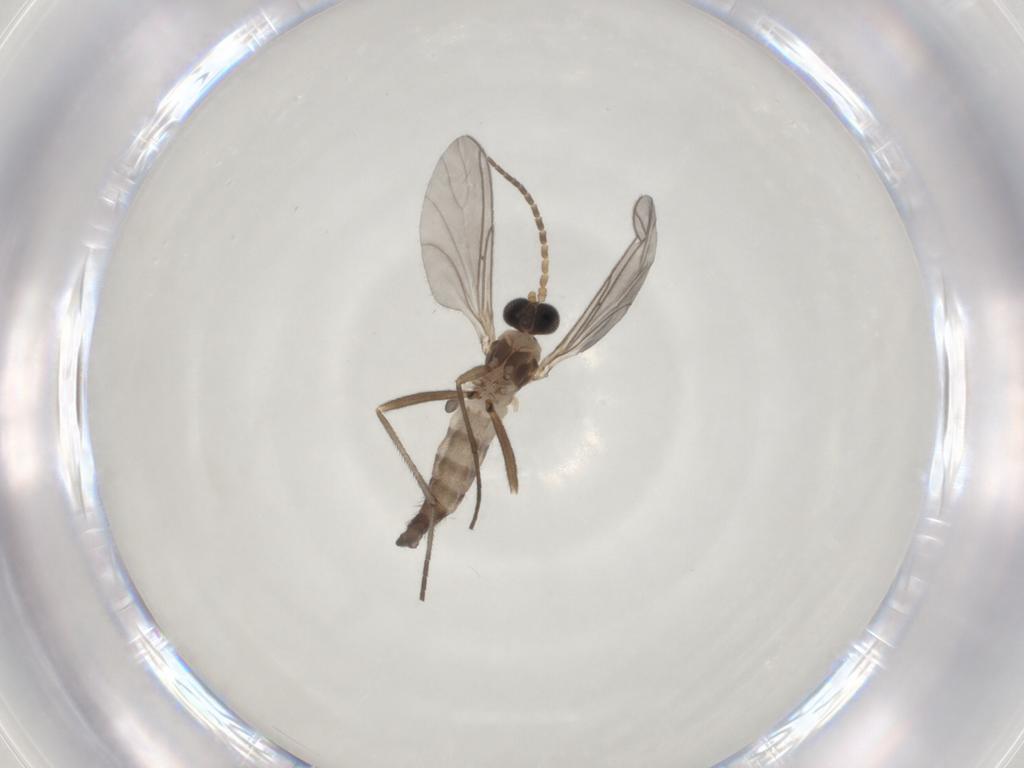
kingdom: Animalia
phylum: Arthropoda
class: Insecta
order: Diptera
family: Sciaridae
